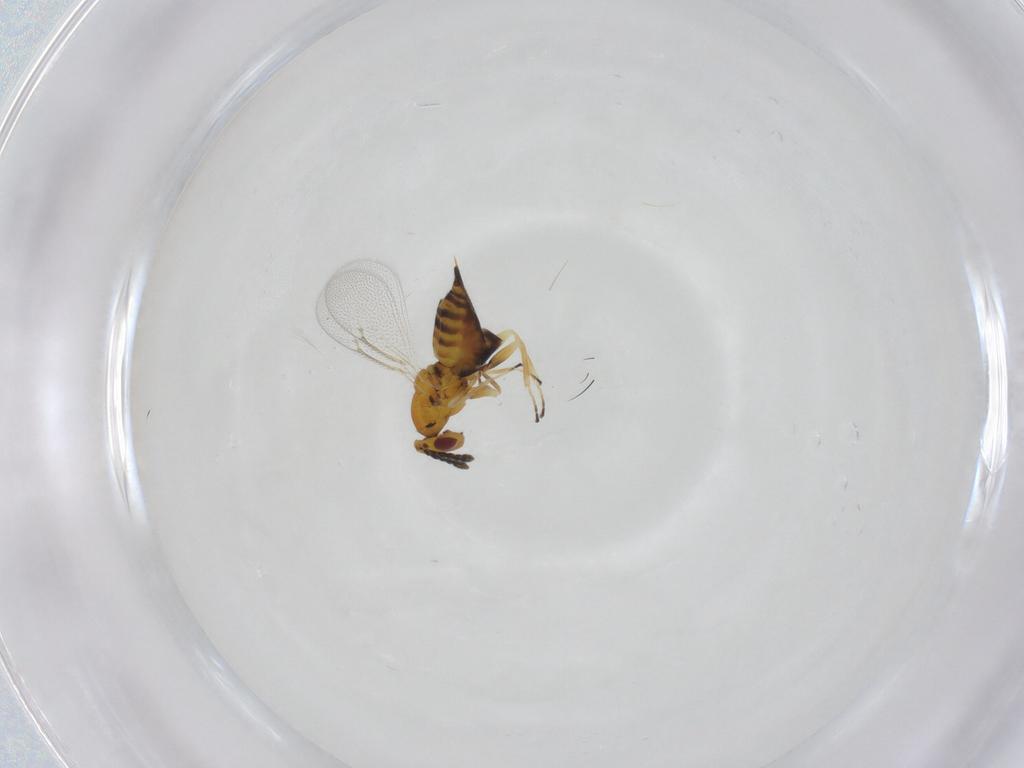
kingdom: Animalia
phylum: Arthropoda
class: Insecta
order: Hymenoptera
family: Eulophidae
